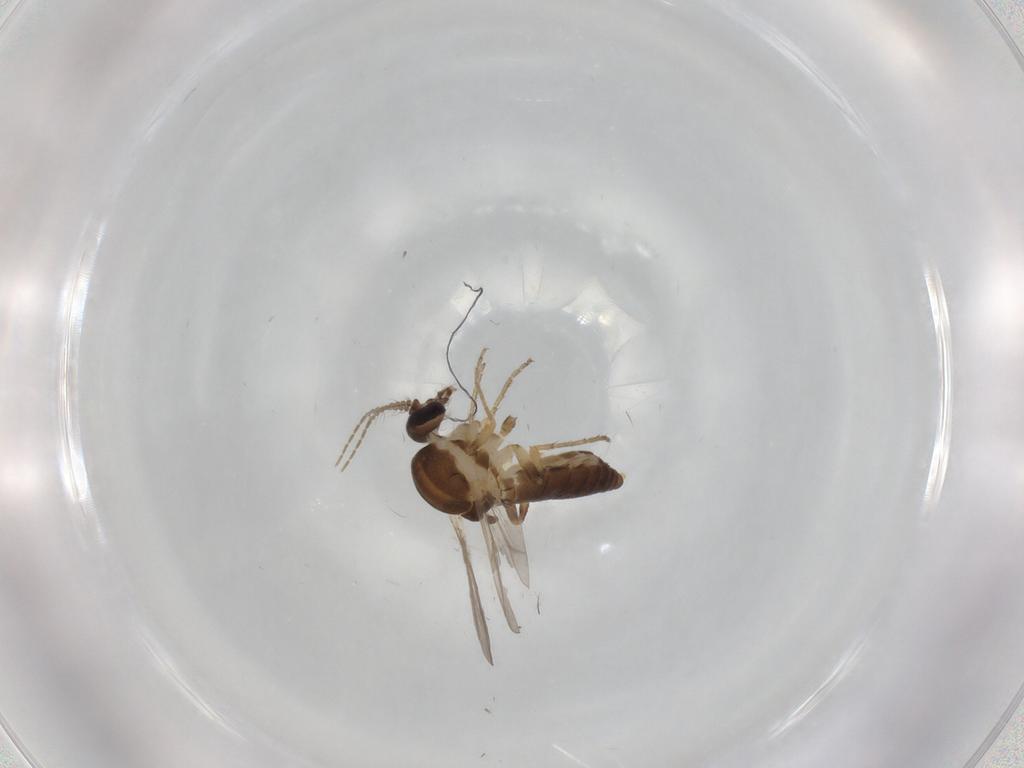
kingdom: Animalia
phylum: Arthropoda
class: Insecta
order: Diptera
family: Ceratopogonidae
